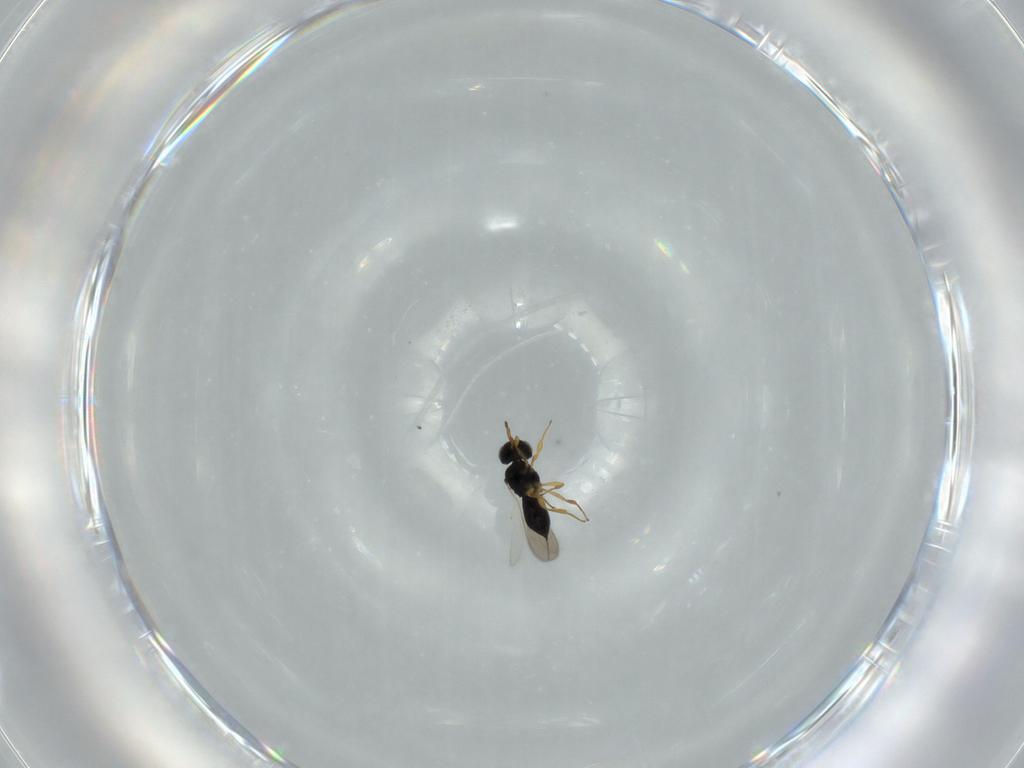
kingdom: Animalia
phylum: Arthropoda
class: Insecta
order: Hymenoptera
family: Scelionidae
